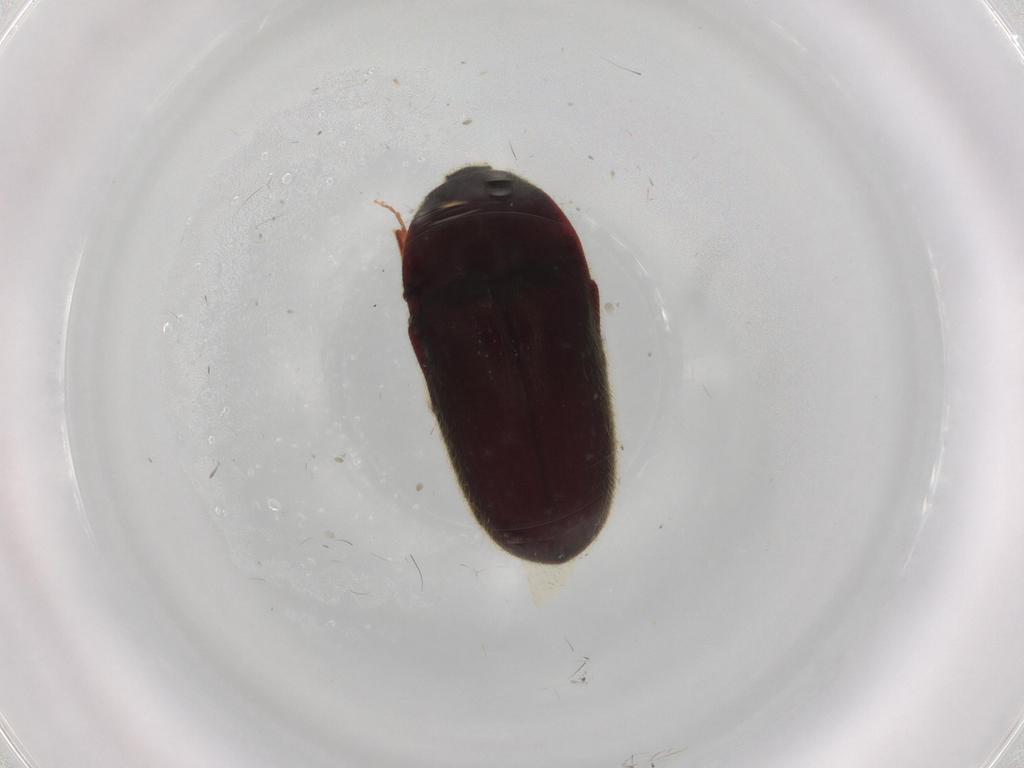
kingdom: Animalia
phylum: Arthropoda
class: Insecta
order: Coleoptera
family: Throscidae
